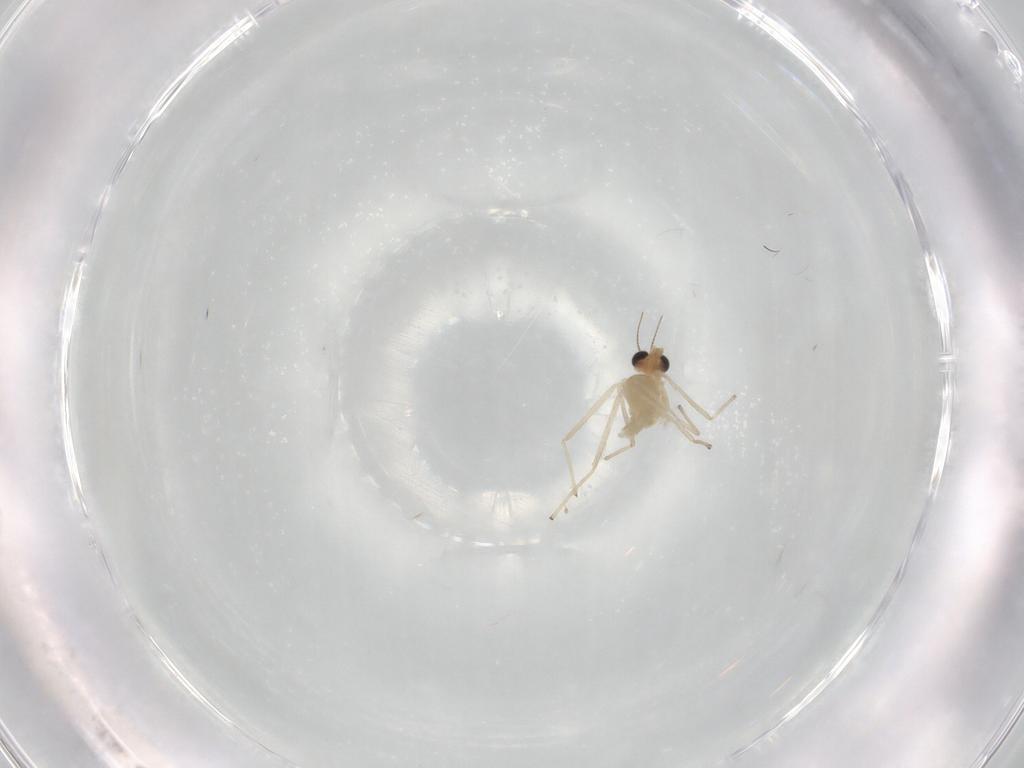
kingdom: Animalia
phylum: Arthropoda
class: Insecta
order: Diptera
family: Chironomidae
